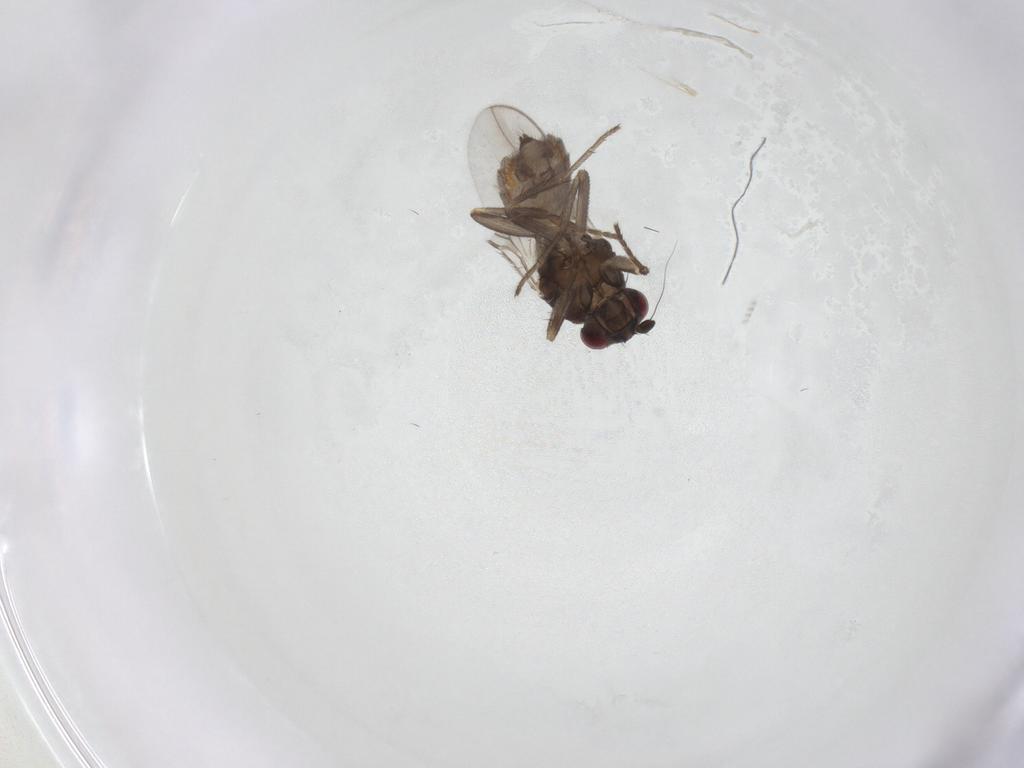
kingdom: Animalia
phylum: Arthropoda
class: Insecta
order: Diptera
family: Sphaeroceridae
